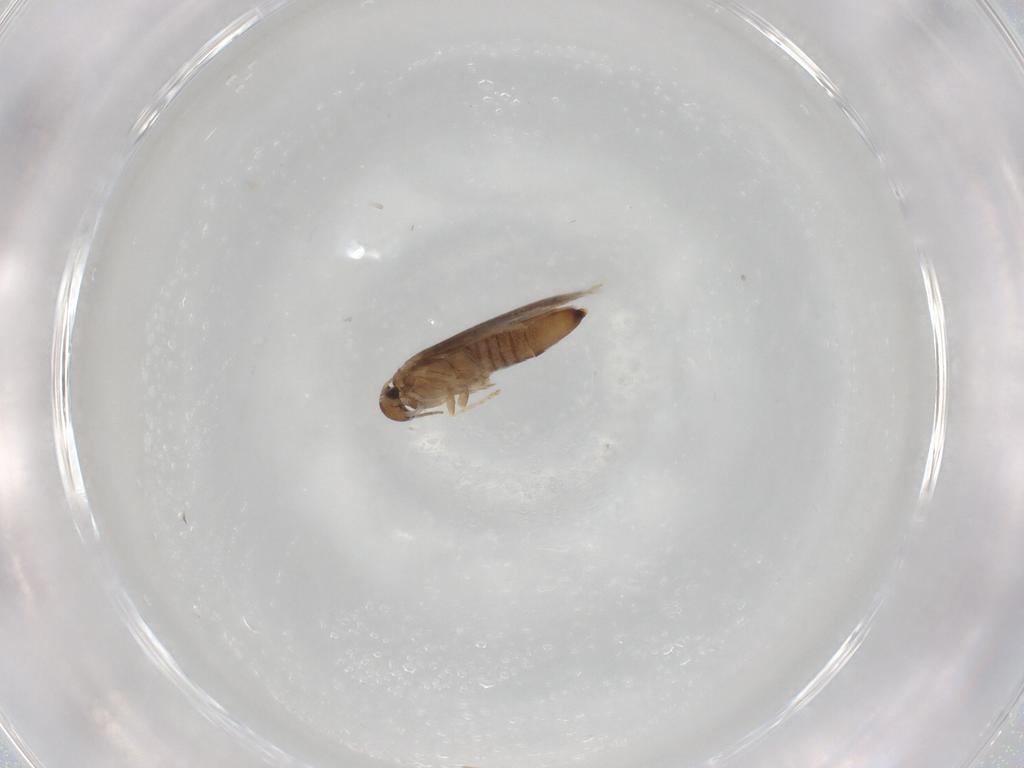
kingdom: Animalia
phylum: Arthropoda
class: Insecta
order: Lepidoptera
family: Heliozelidae
